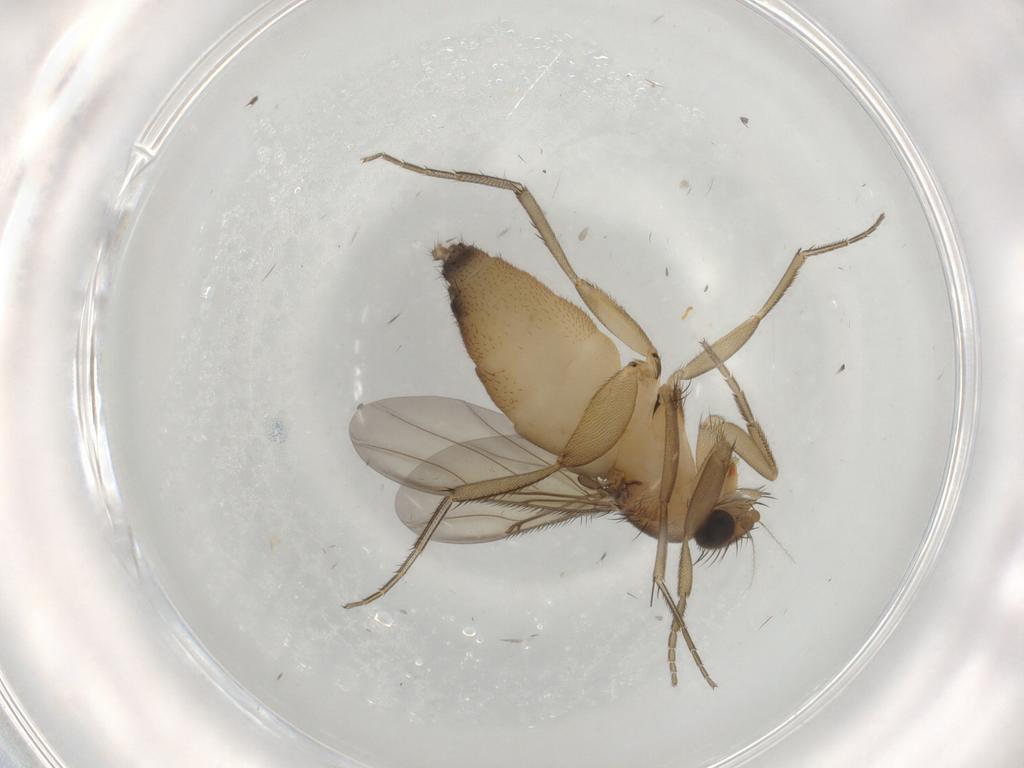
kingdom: Animalia
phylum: Arthropoda
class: Insecta
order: Diptera
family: Phoridae
